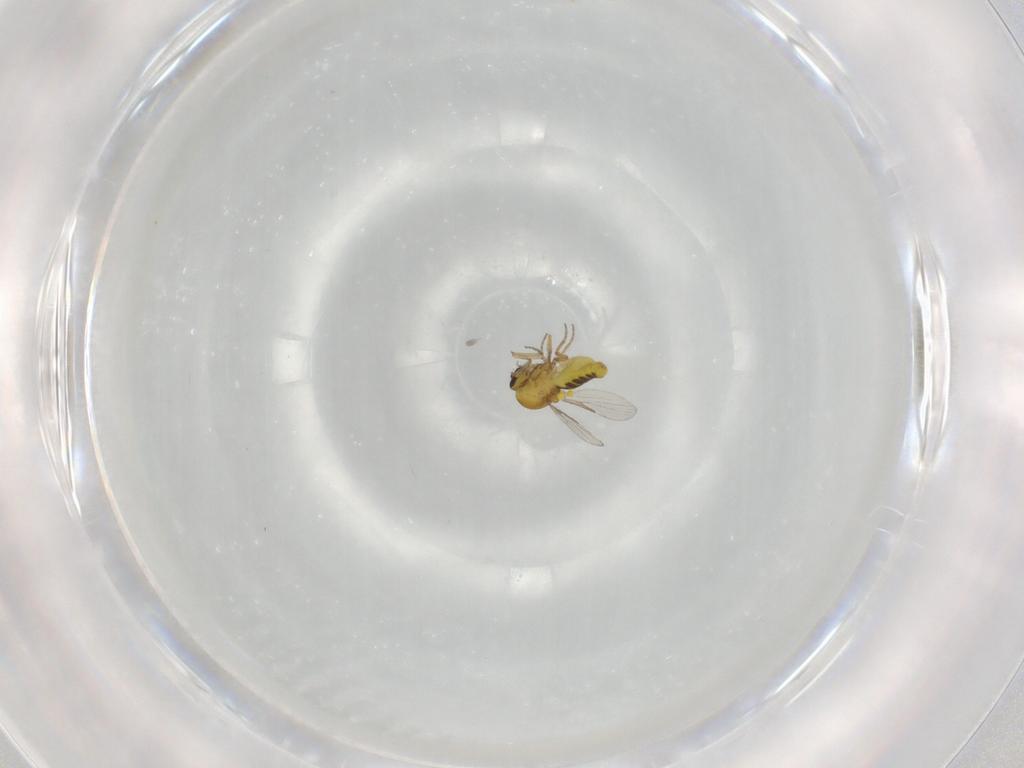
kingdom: Animalia
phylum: Arthropoda
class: Insecta
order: Diptera
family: Ceratopogonidae
